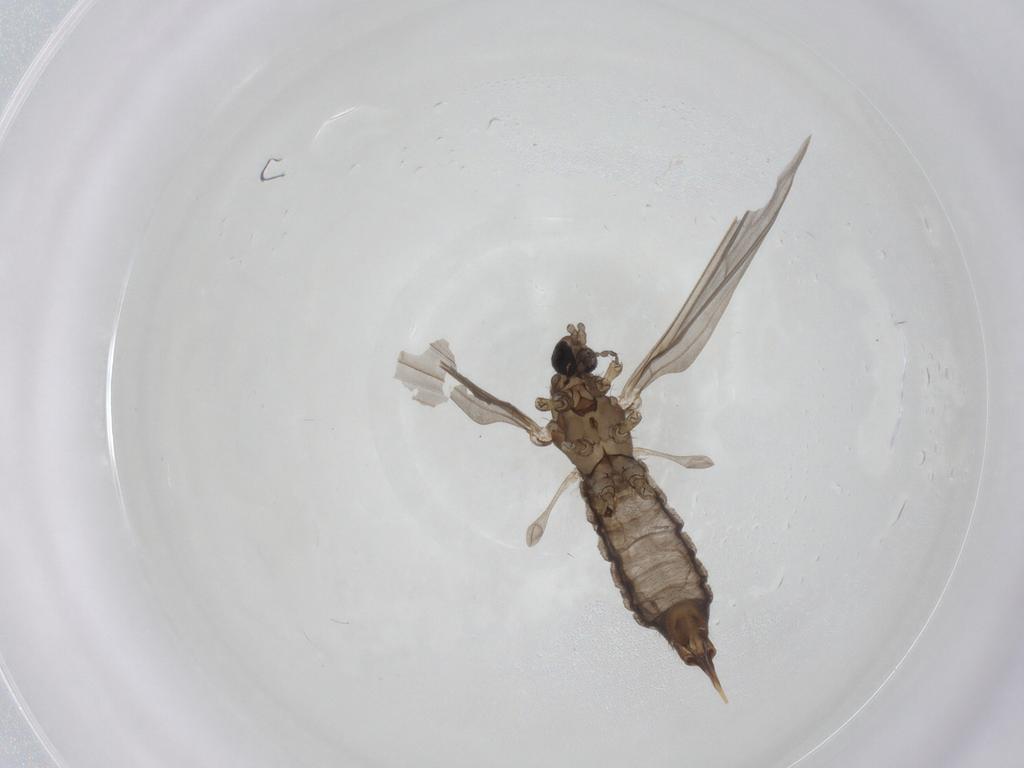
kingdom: Animalia
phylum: Arthropoda
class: Insecta
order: Diptera
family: Limoniidae
